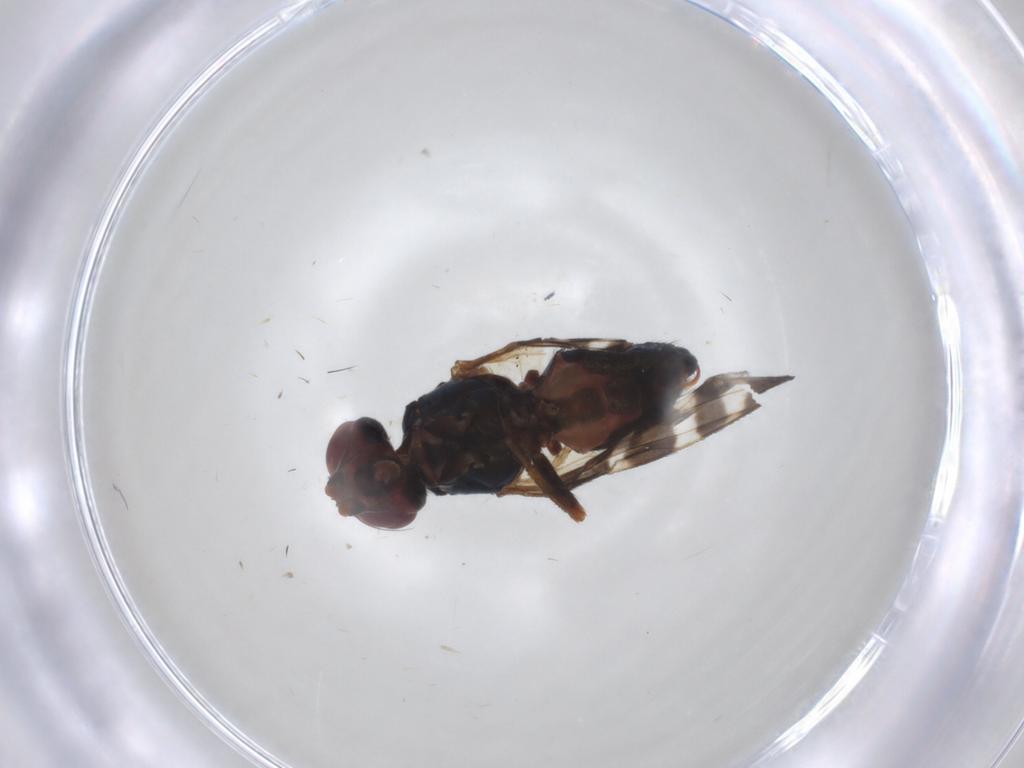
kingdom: Animalia
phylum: Arthropoda
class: Insecta
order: Diptera
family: Platystomatidae
